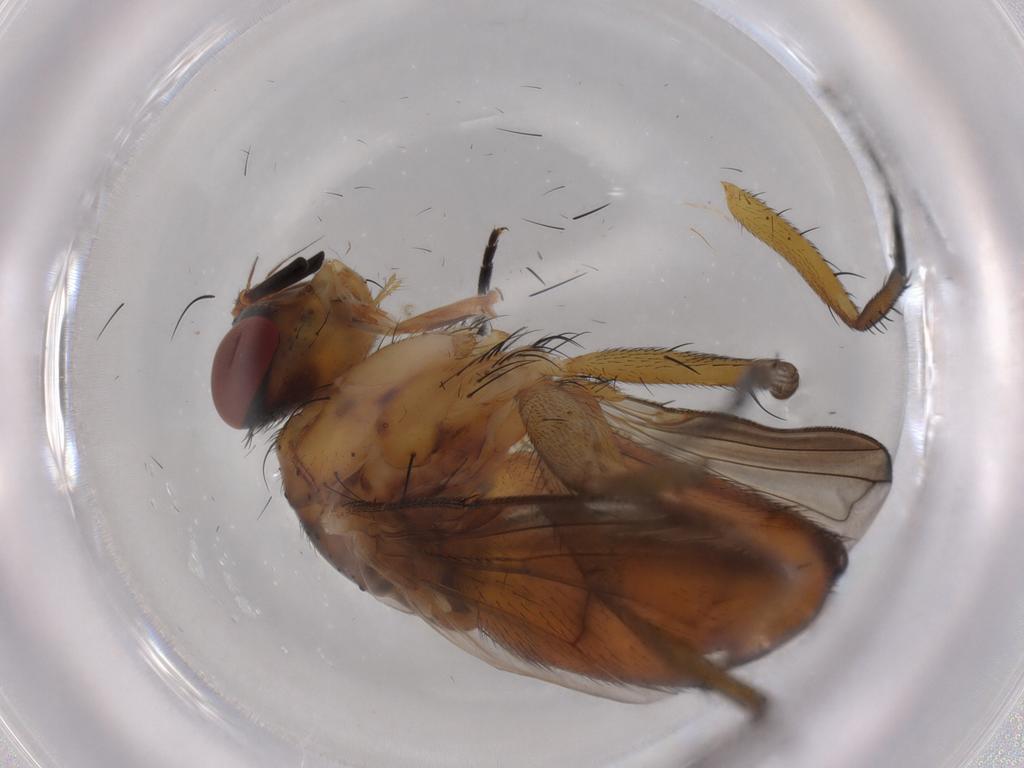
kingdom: Animalia
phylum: Arthropoda
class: Insecta
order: Diptera
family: Tachinidae
